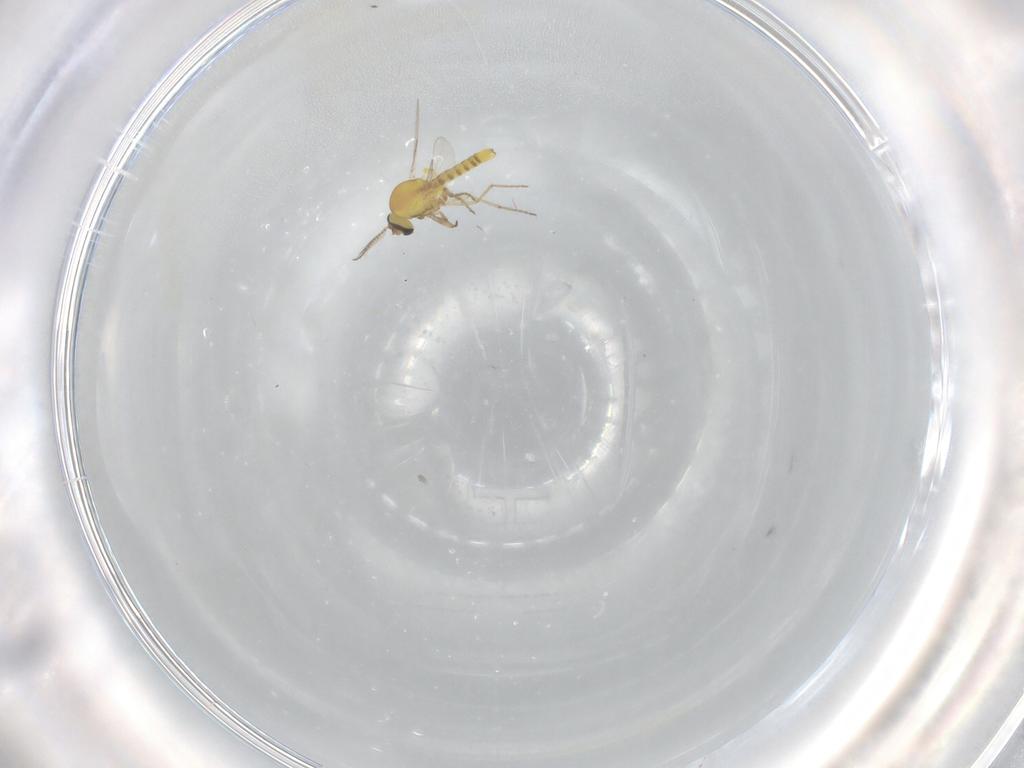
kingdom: Animalia
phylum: Arthropoda
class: Insecta
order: Diptera
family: Ceratopogonidae
